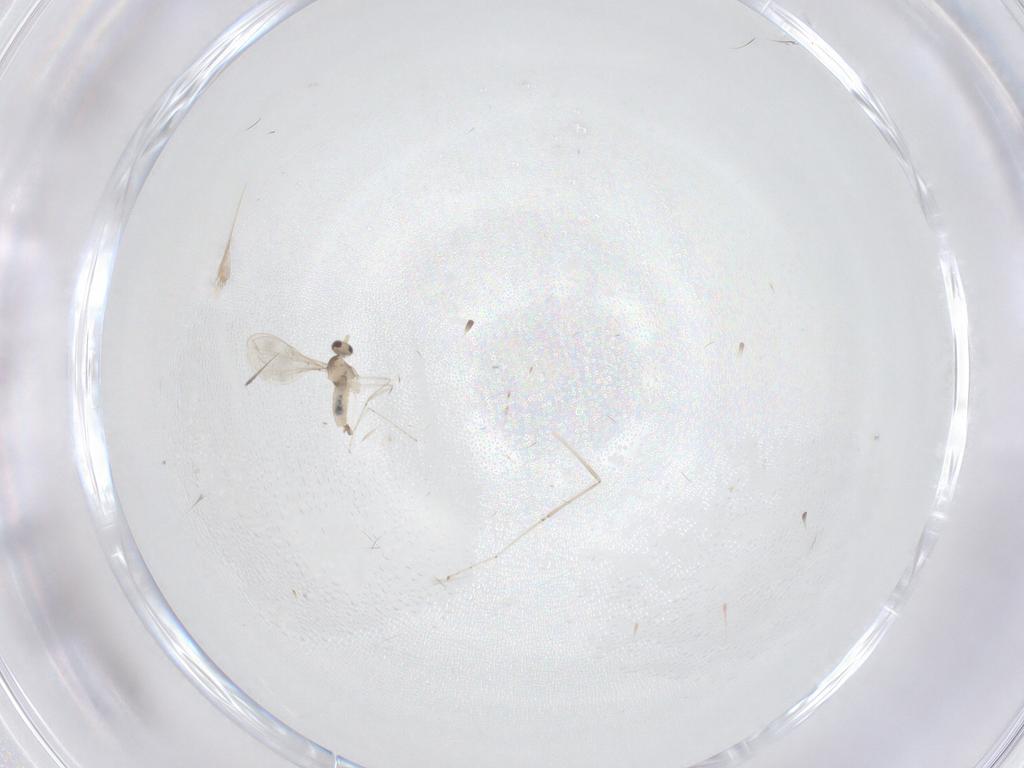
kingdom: Animalia
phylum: Arthropoda
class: Insecta
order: Diptera
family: Cecidomyiidae
